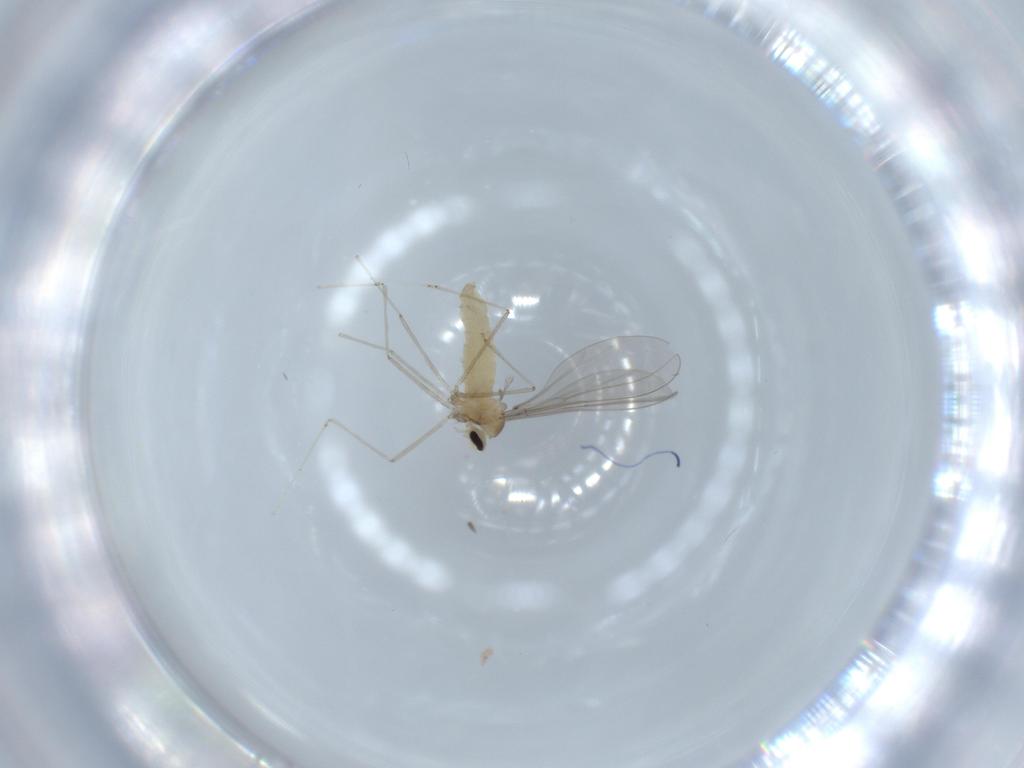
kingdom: Animalia
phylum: Arthropoda
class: Insecta
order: Diptera
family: Cecidomyiidae
